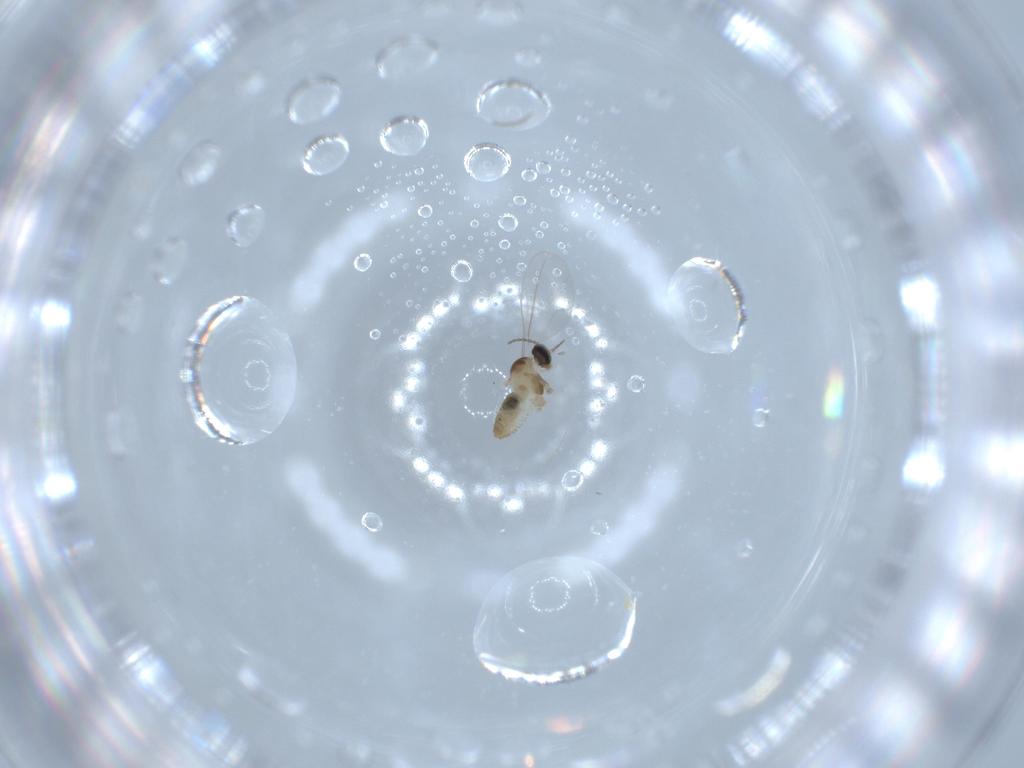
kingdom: Animalia
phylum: Arthropoda
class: Insecta
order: Diptera
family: Cecidomyiidae
